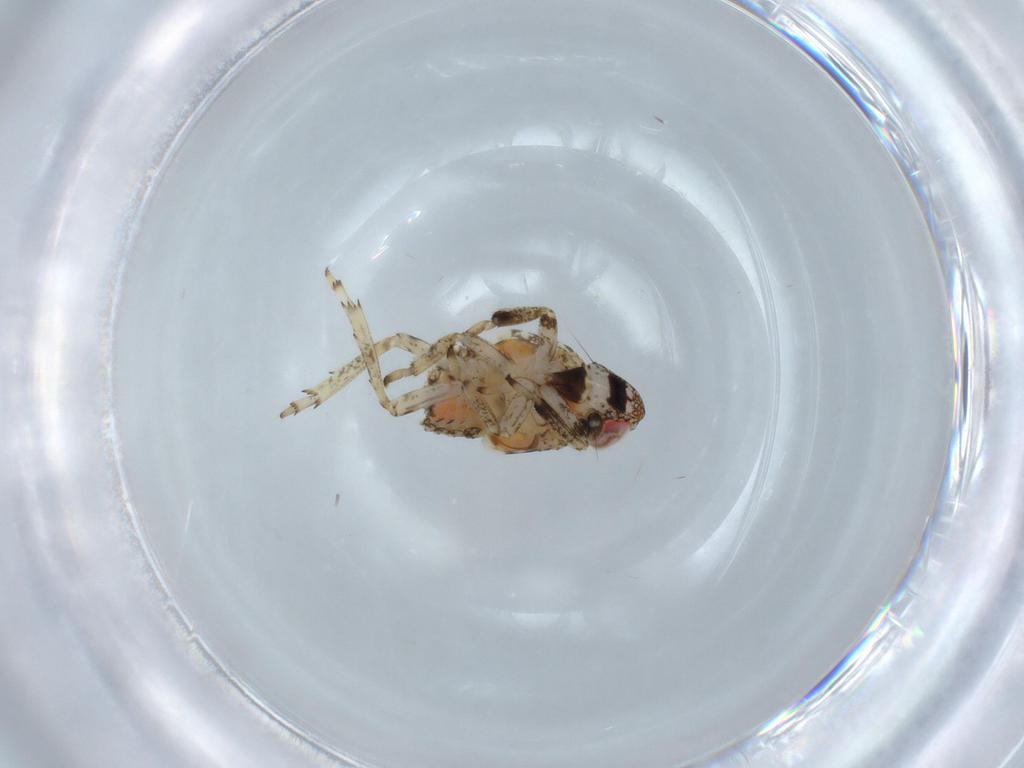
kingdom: Animalia
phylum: Arthropoda
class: Insecta
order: Hemiptera
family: Issidae
